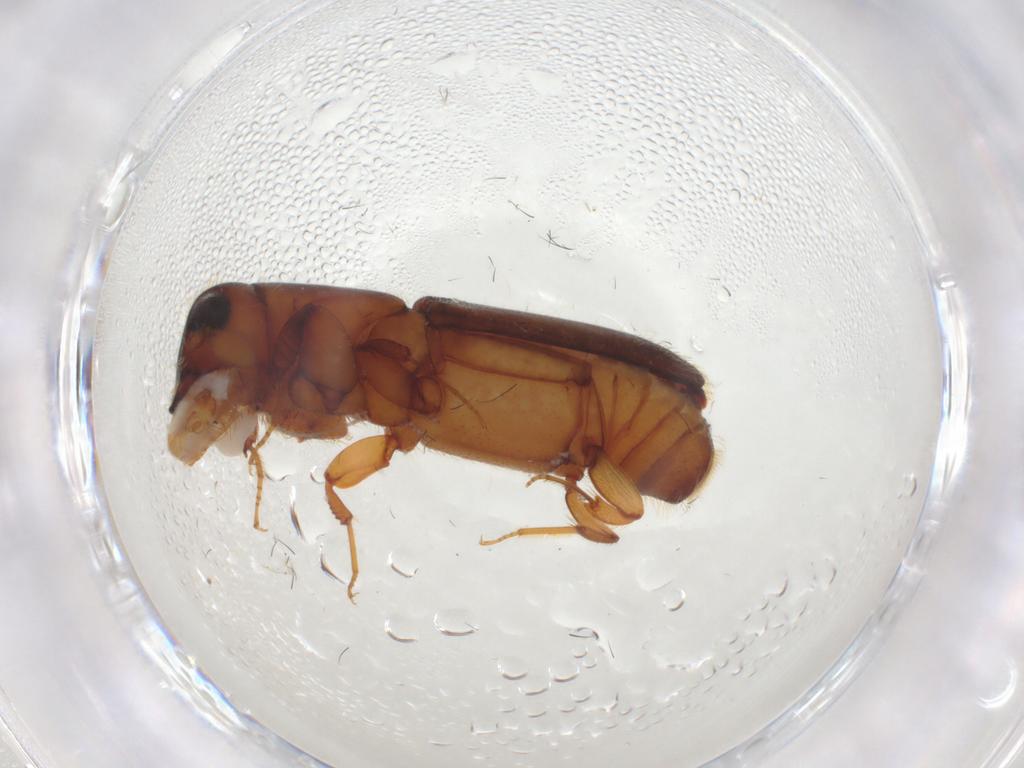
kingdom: Animalia
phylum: Arthropoda
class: Insecta
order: Coleoptera
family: Curculionidae
